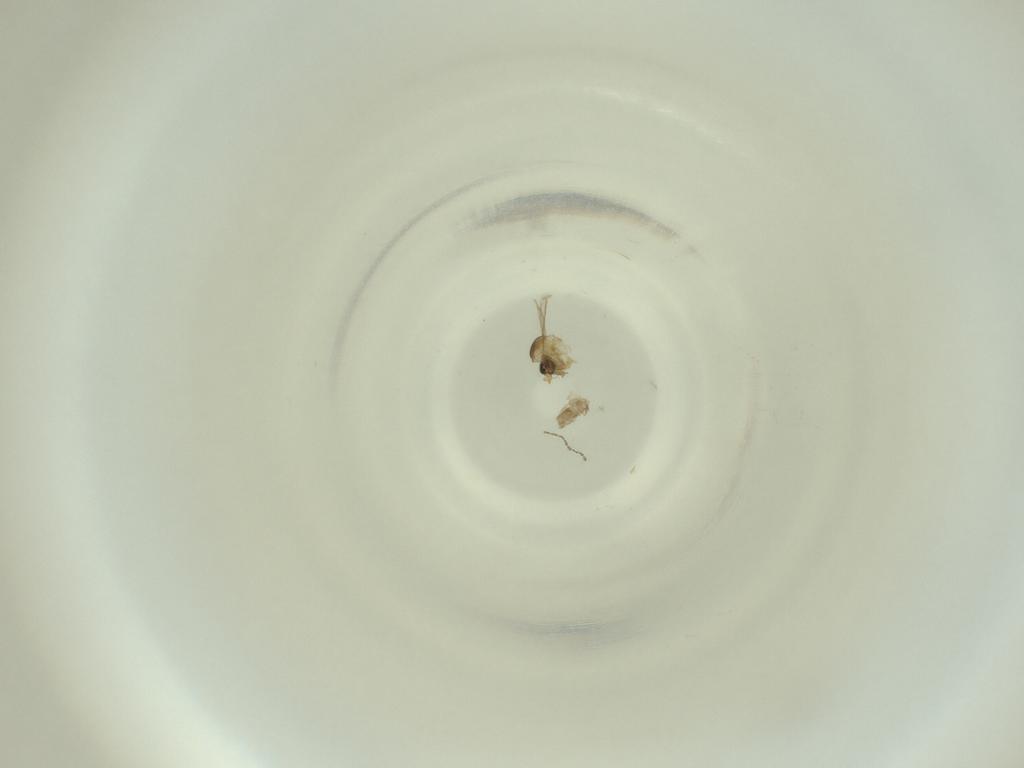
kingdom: Animalia
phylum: Arthropoda
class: Insecta
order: Diptera
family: Cecidomyiidae
